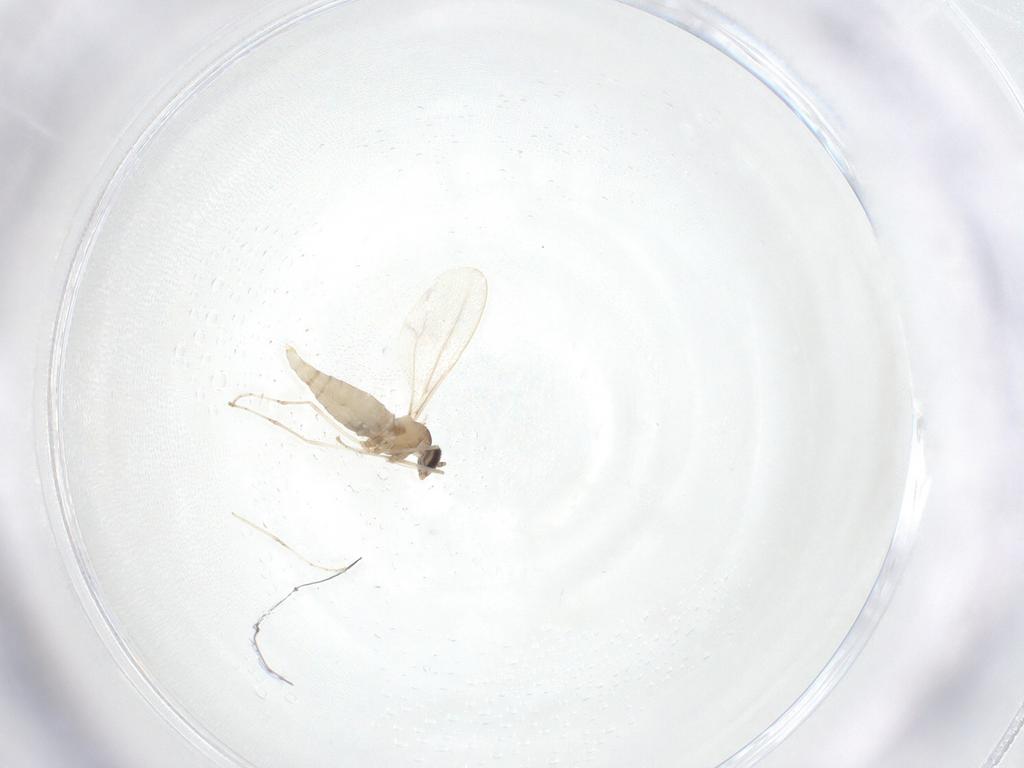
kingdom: Animalia
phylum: Arthropoda
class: Insecta
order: Diptera
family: Cecidomyiidae
